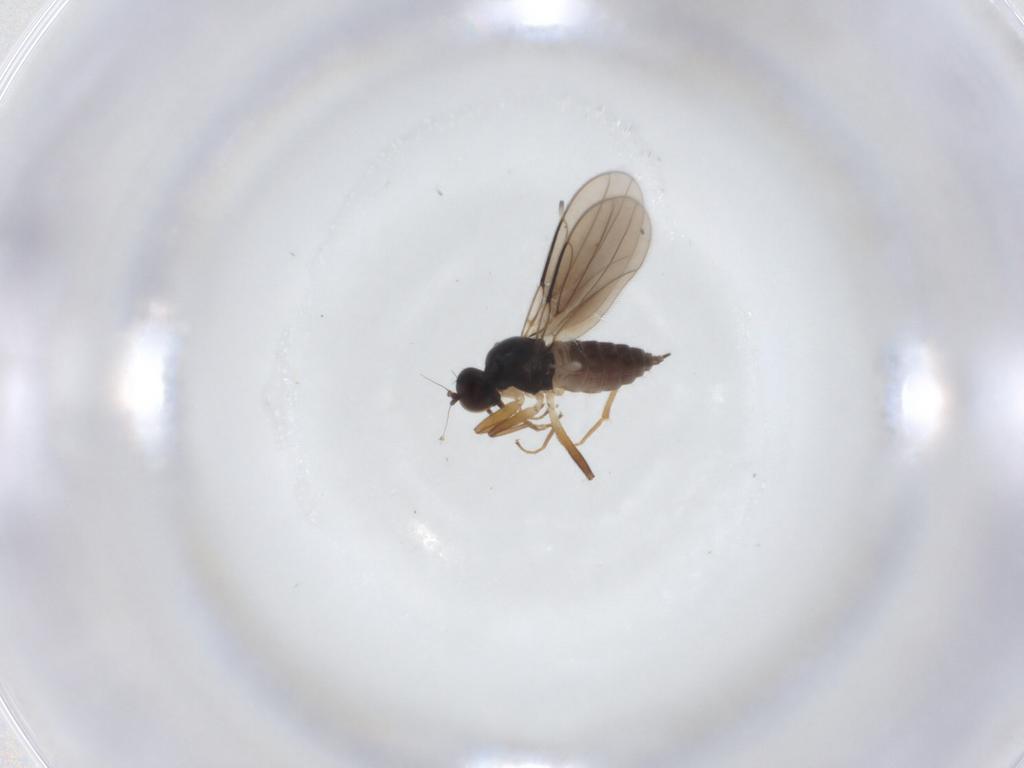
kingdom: Animalia
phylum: Arthropoda
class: Insecta
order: Diptera
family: Hybotidae
